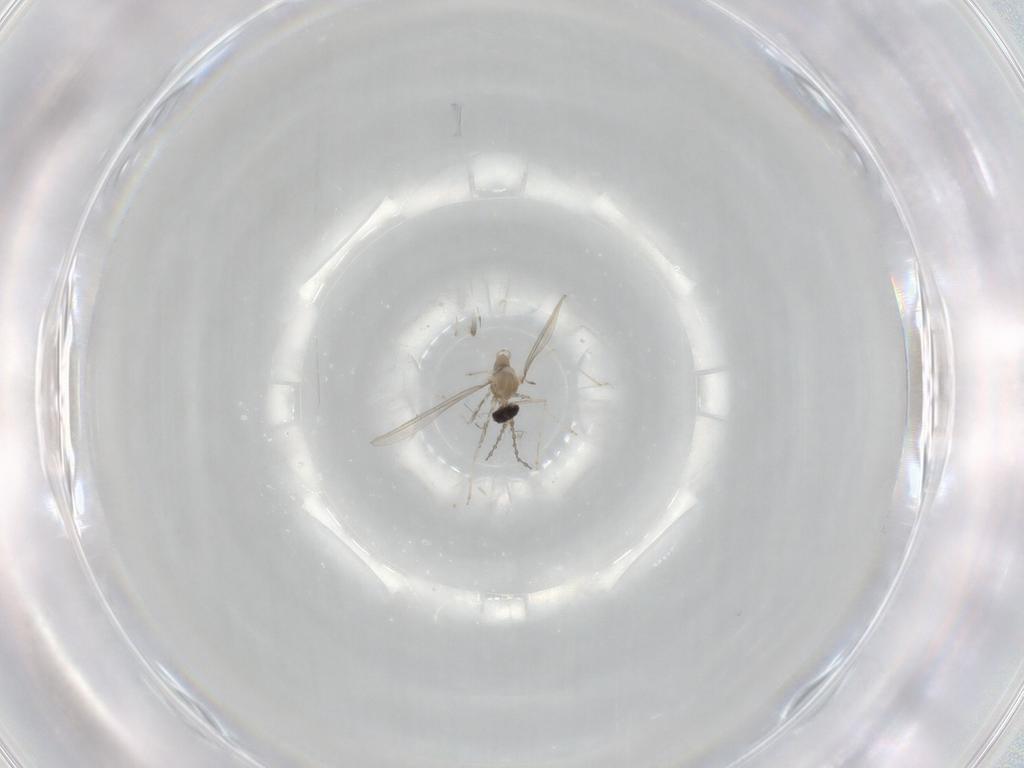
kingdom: Animalia
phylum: Arthropoda
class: Insecta
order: Diptera
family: Cecidomyiidae
